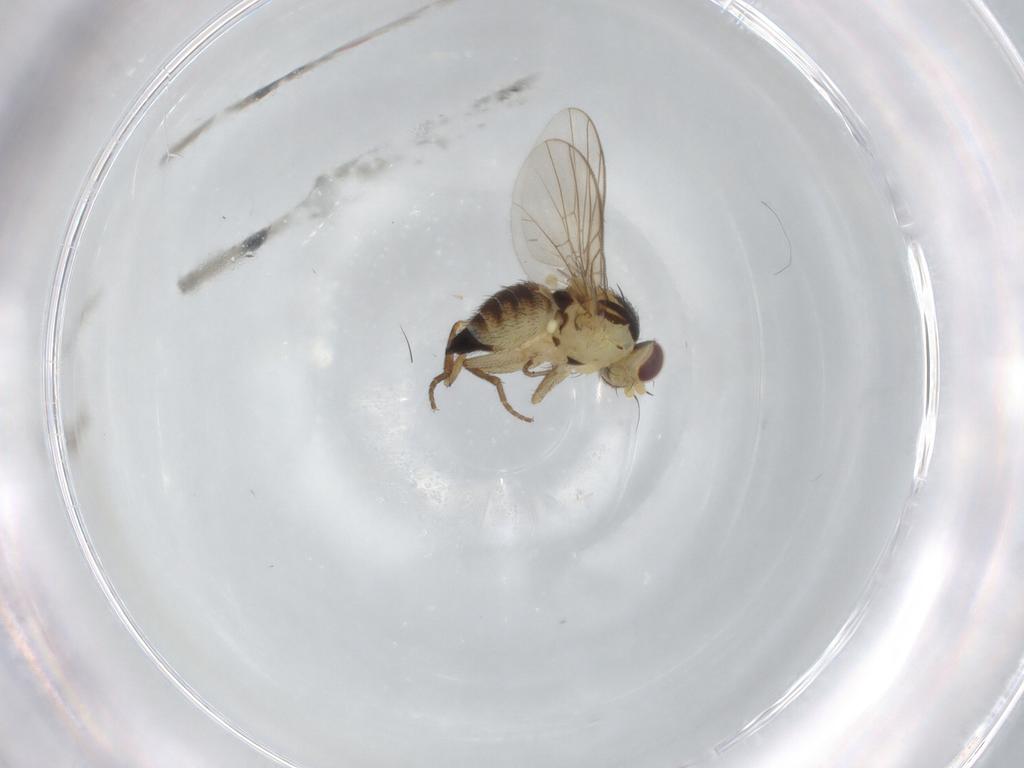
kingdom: Animalia
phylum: Arthropoda
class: Insecta
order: Diptera
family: Agromyzidae
